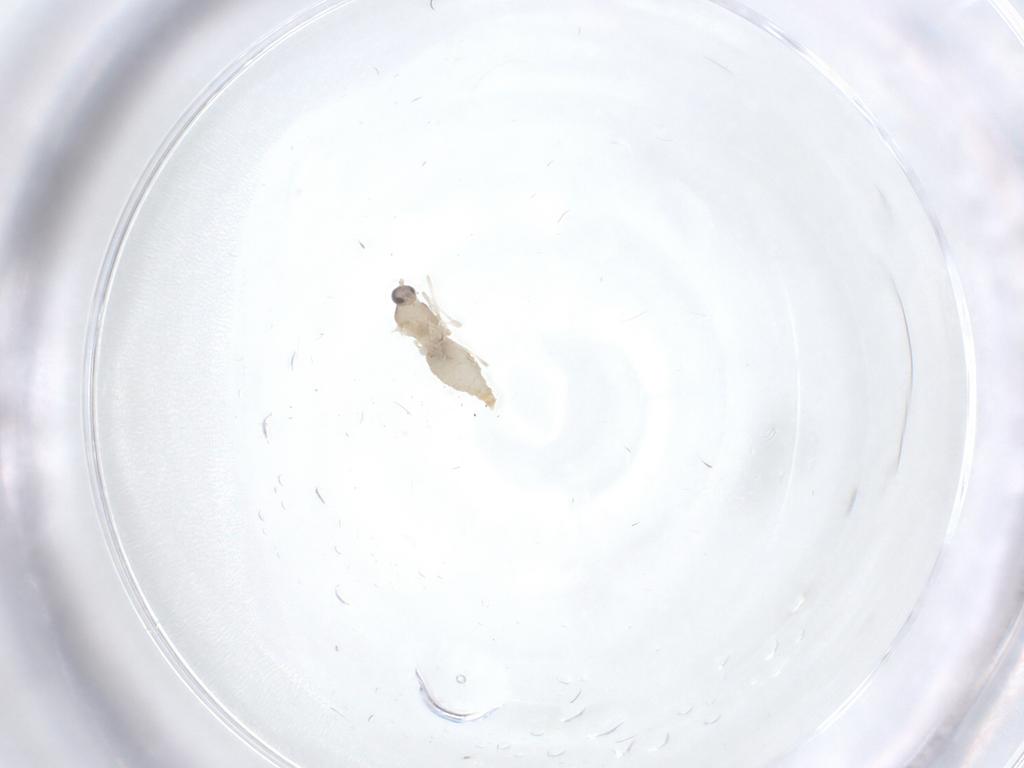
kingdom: Animalia
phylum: Arthropoda
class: Insecta
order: Diptera
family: Cecidomyiidae
